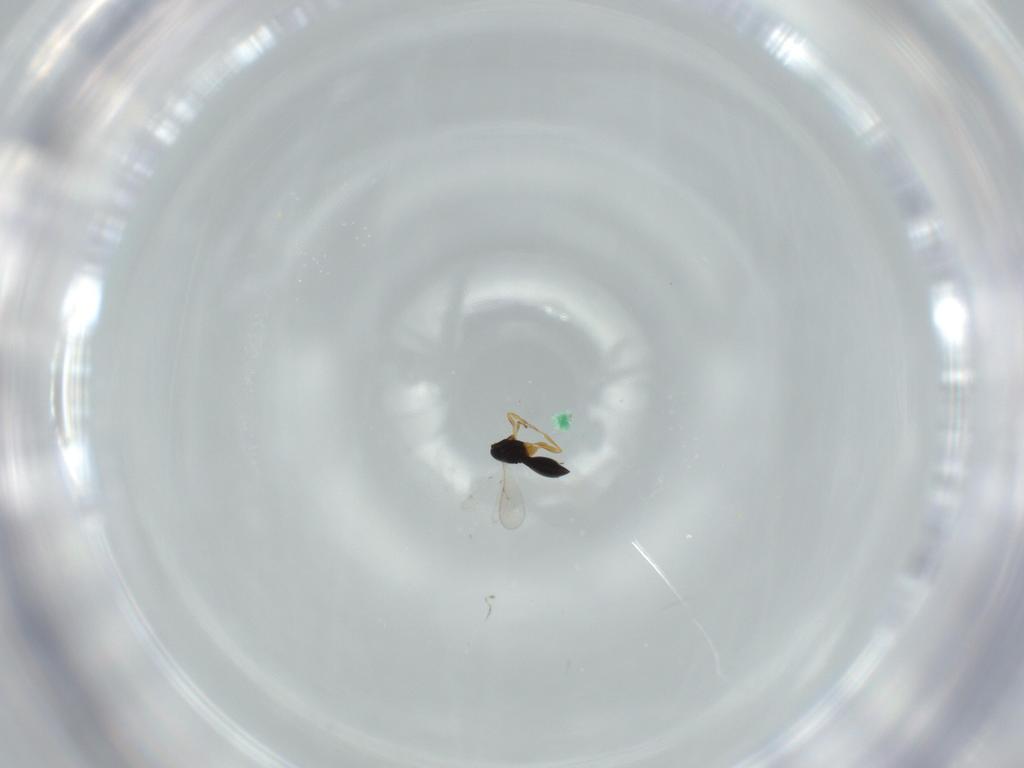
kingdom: Animalia
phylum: Arthropoda
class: Insecta
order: Hymenoptera
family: Scelionidae
